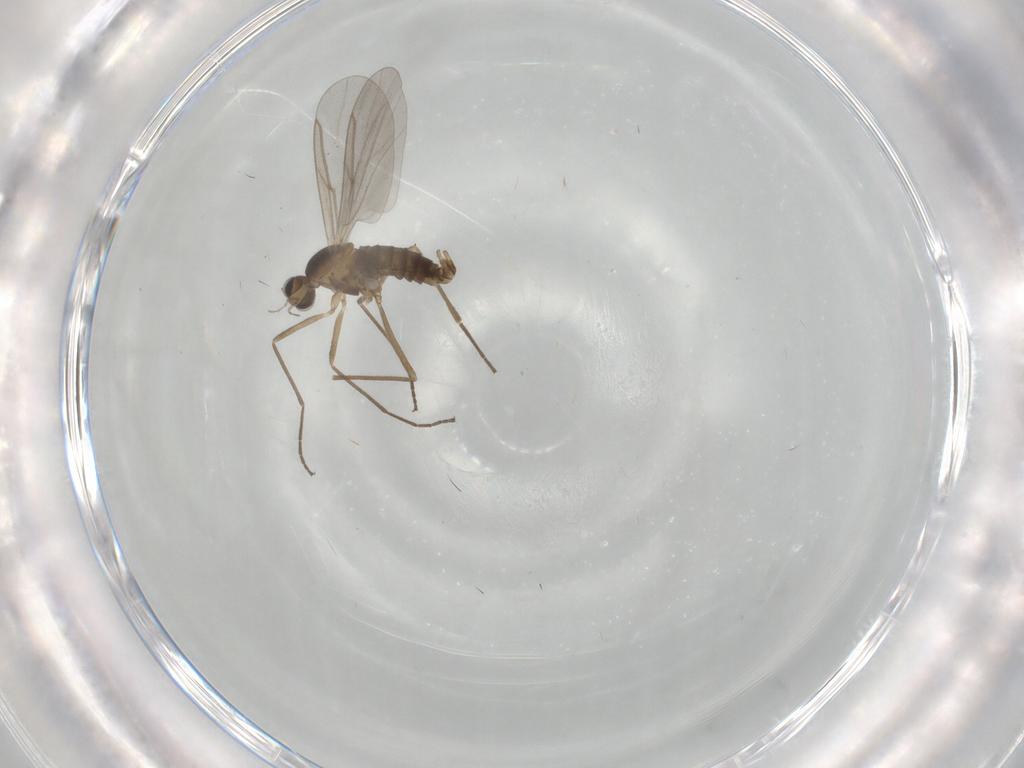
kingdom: Animalia
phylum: Arthropoda
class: Insecta
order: Diptera
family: Cecidomyiidae
